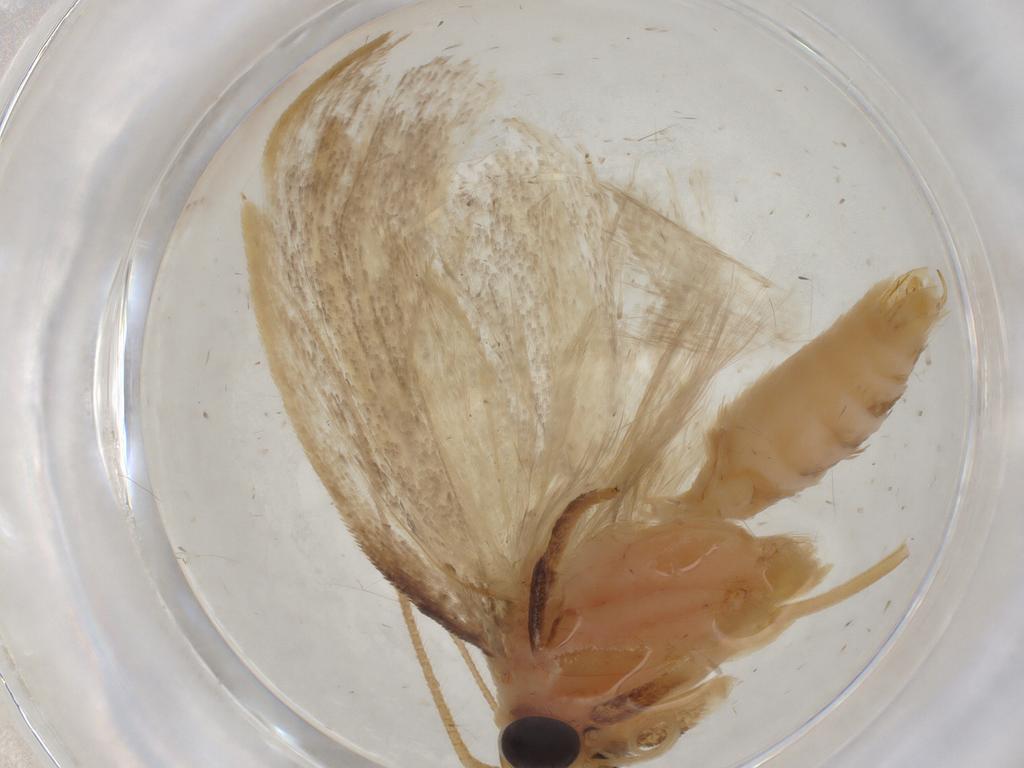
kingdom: Animalia
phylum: Arthropoda
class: Insecta
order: Lepidoptera
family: Depressariidae
